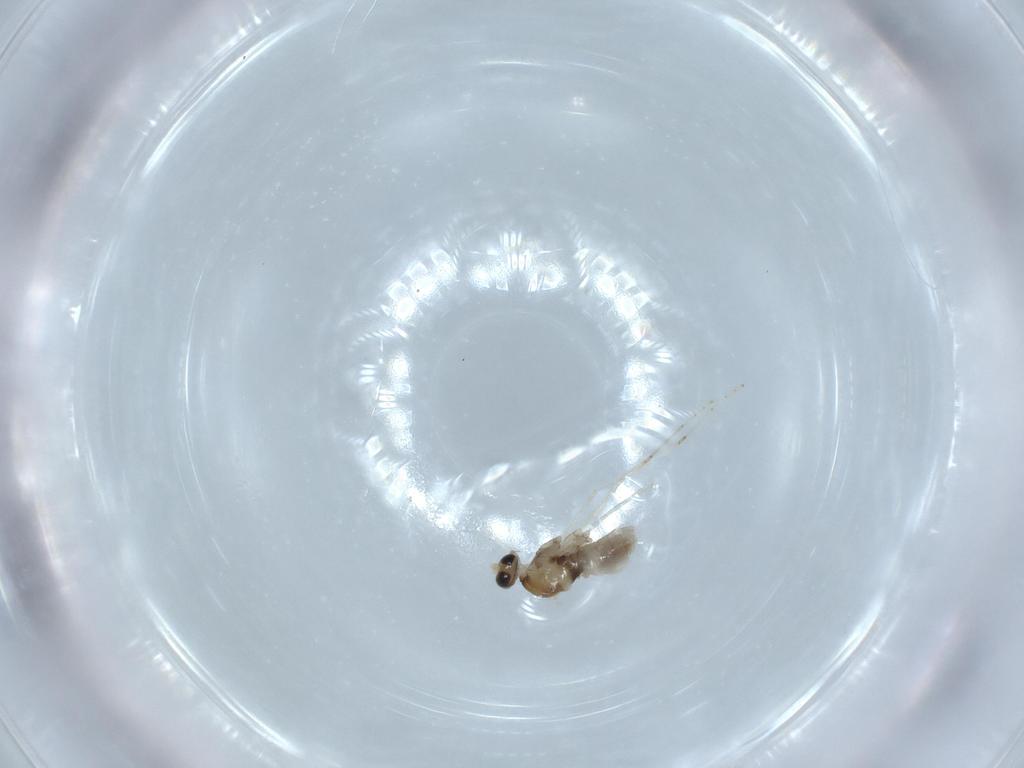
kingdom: Animalia
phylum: Arthropoda
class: Insecta
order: Diptera
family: Cecidomyiidae
